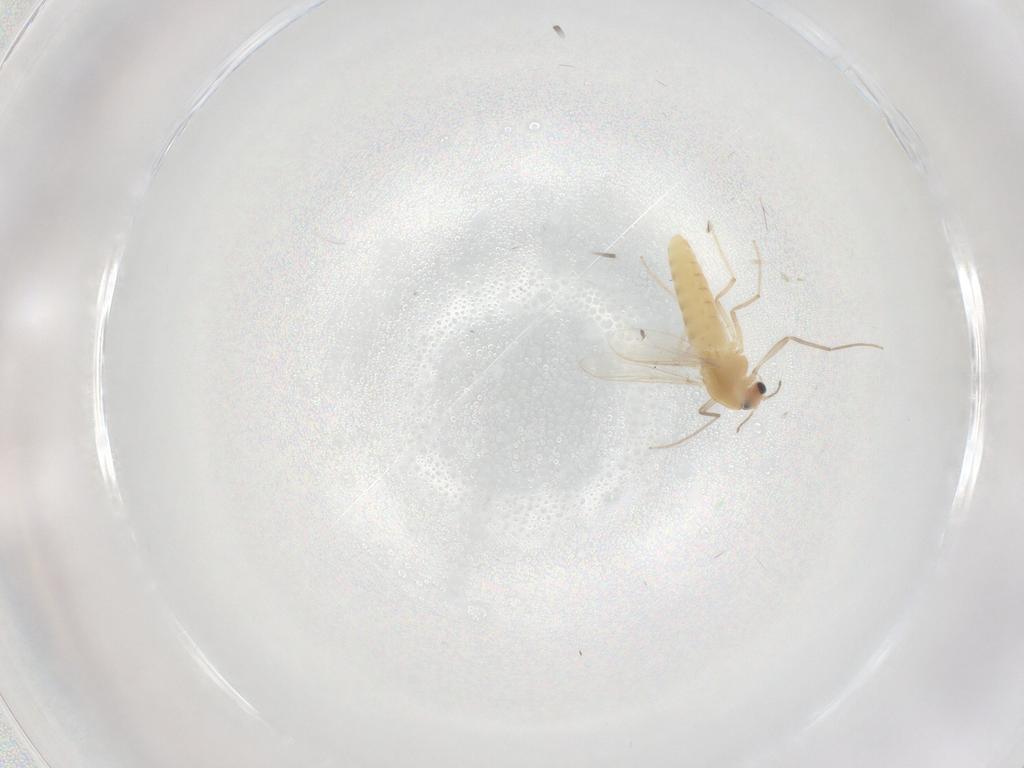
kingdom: Animalia
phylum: Arthropoda
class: Insecta
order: Diptera
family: Chironomidae
